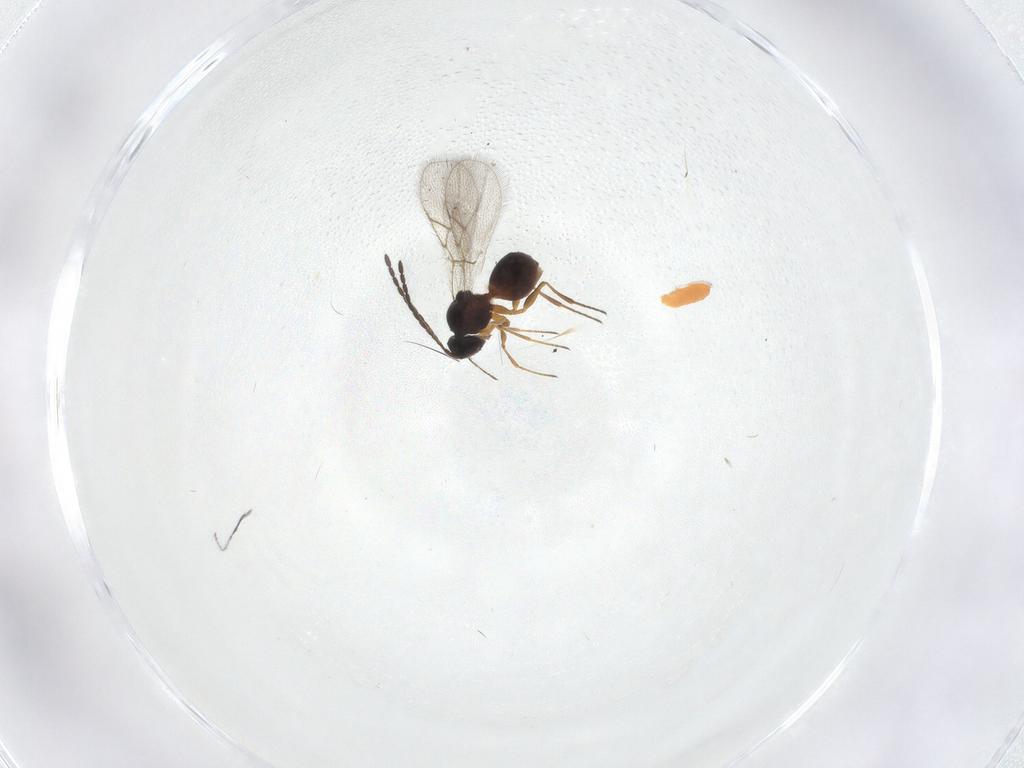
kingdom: Animalia
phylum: Arthropoda
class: Insecta
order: Hymenoptera
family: Figitidae
